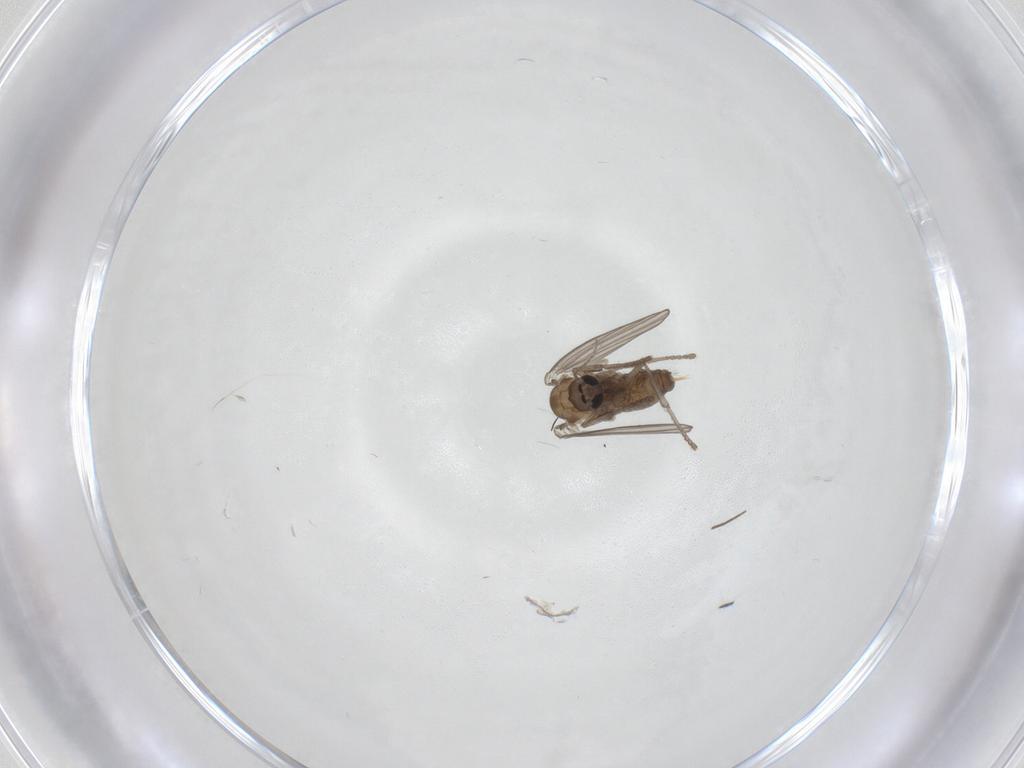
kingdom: Animalia
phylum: Arthropoda
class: Insecta
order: Diptera
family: Phoridae
